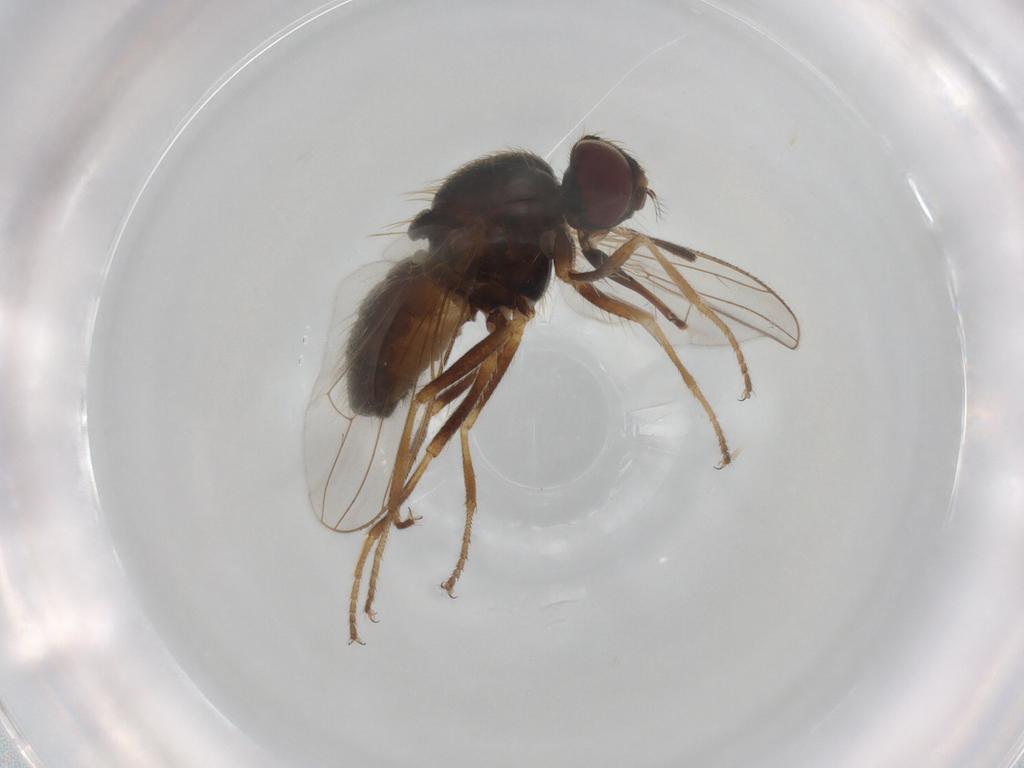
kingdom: Animalia
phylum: Arthropoda
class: Insecta
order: Diptera
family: Muscidae
